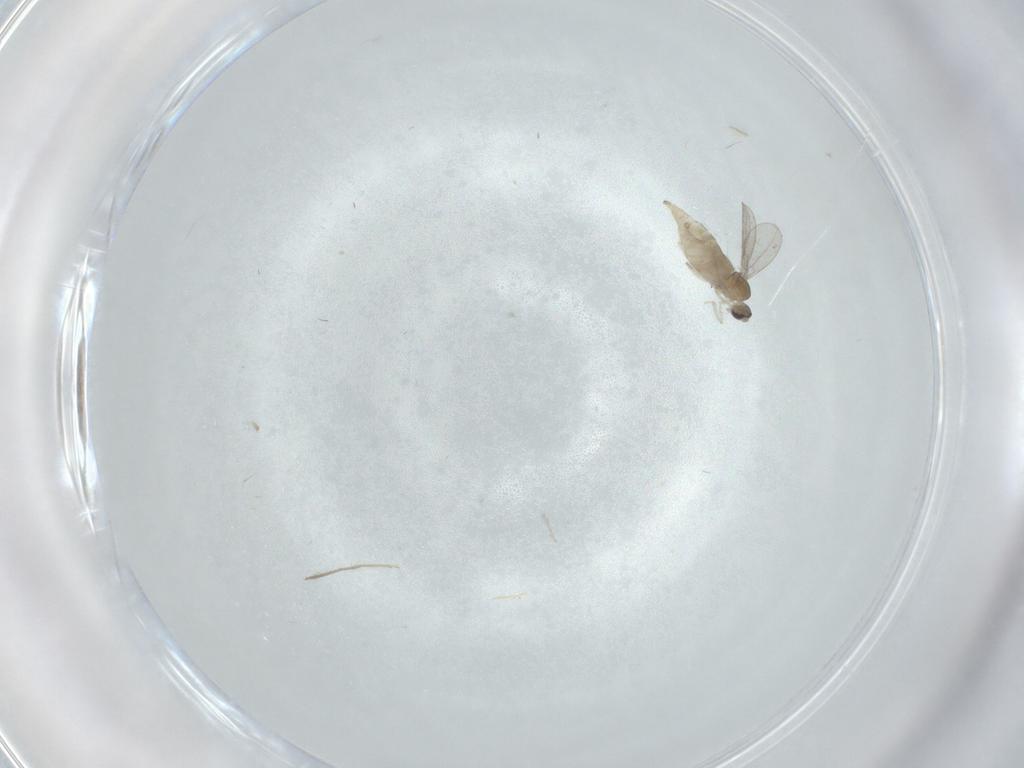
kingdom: Animalia
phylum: Arthropoda
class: Insecta
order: Diptera
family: Cecidomyiidae
